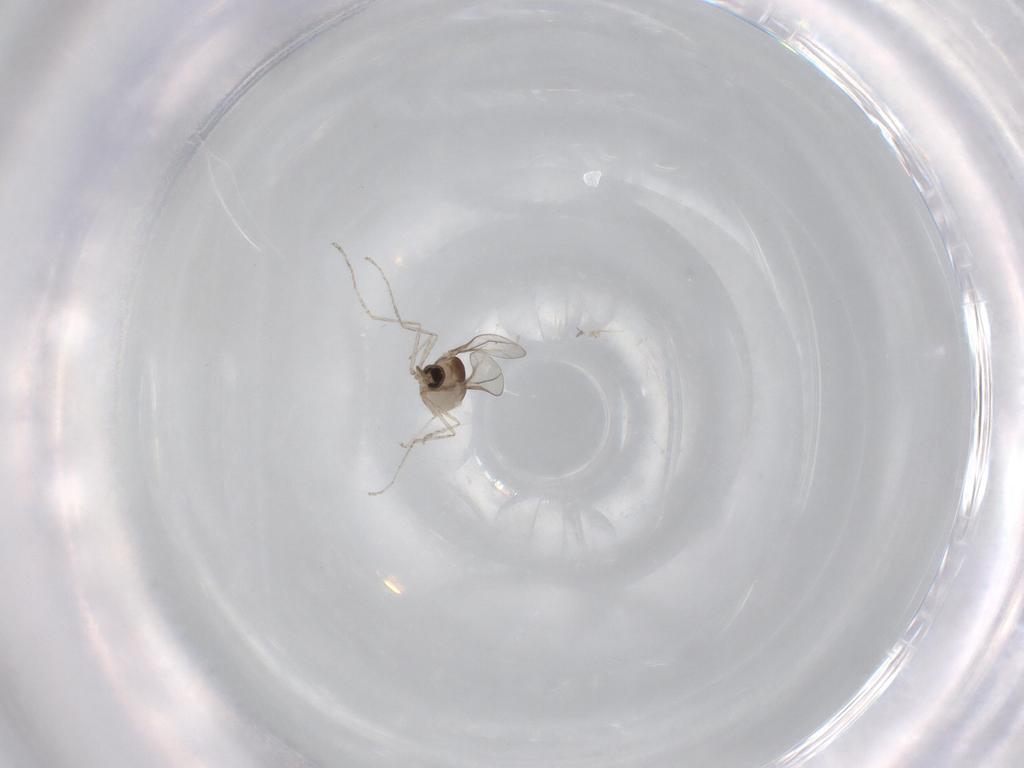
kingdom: Animalia
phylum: Arthropoda
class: Insecta
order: Diptera
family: Cecidomyiidae
